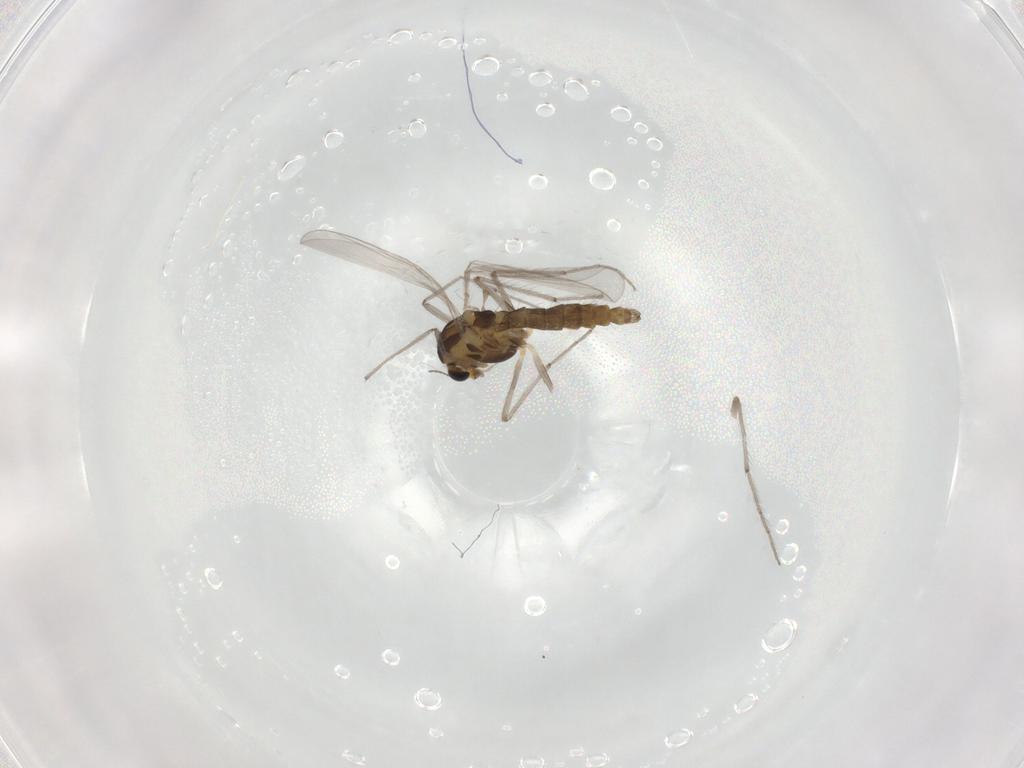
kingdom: Animalia
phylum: Arthropoda
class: Insecta
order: Diptera
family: Chironomidae
